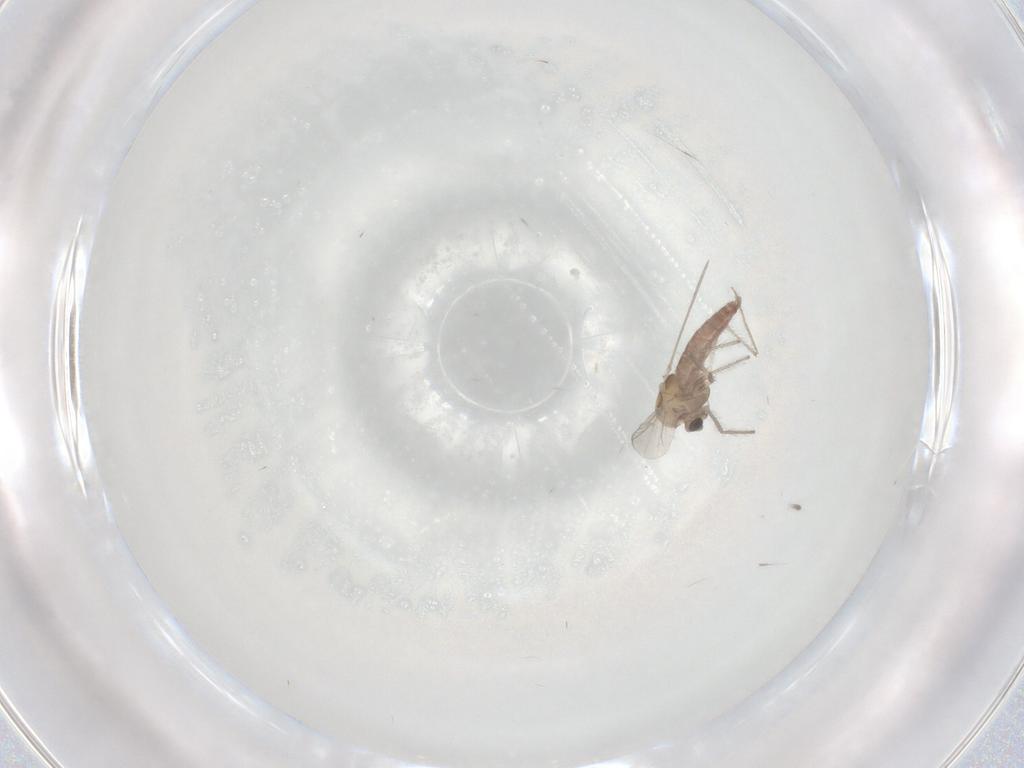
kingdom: Animalia
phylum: Arthropoda
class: Insecta
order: Diptera
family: Chironomidae
